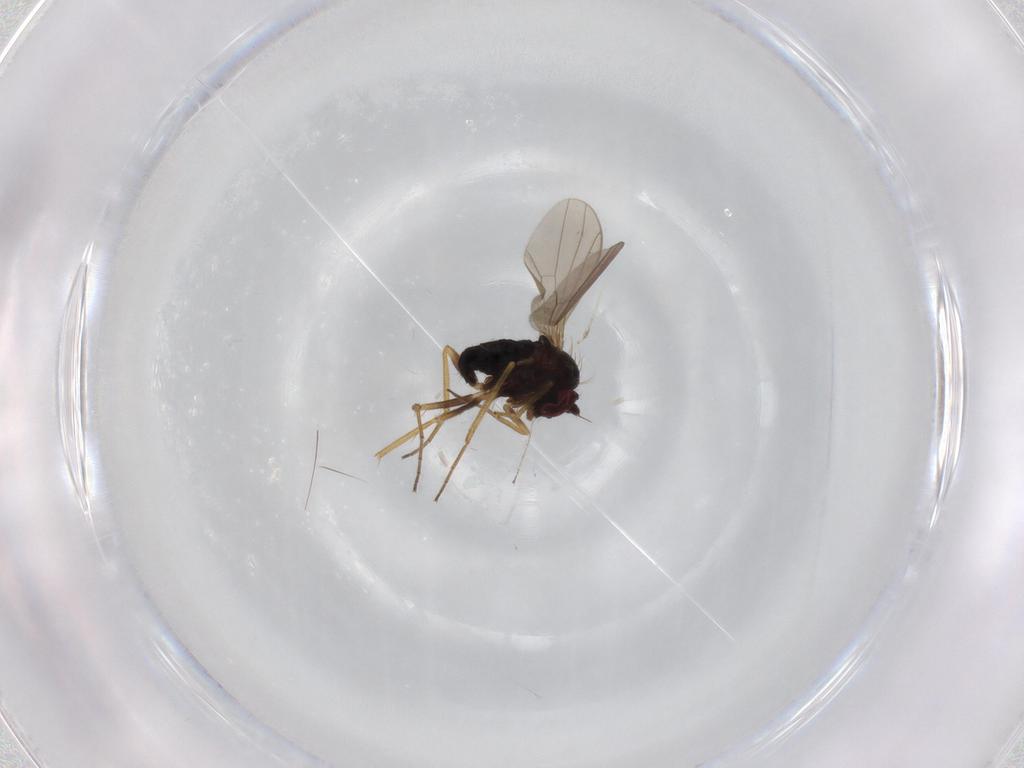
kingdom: Animalia
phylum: Arthropoda
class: Insecta
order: Diptera
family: Dolichopodidae
